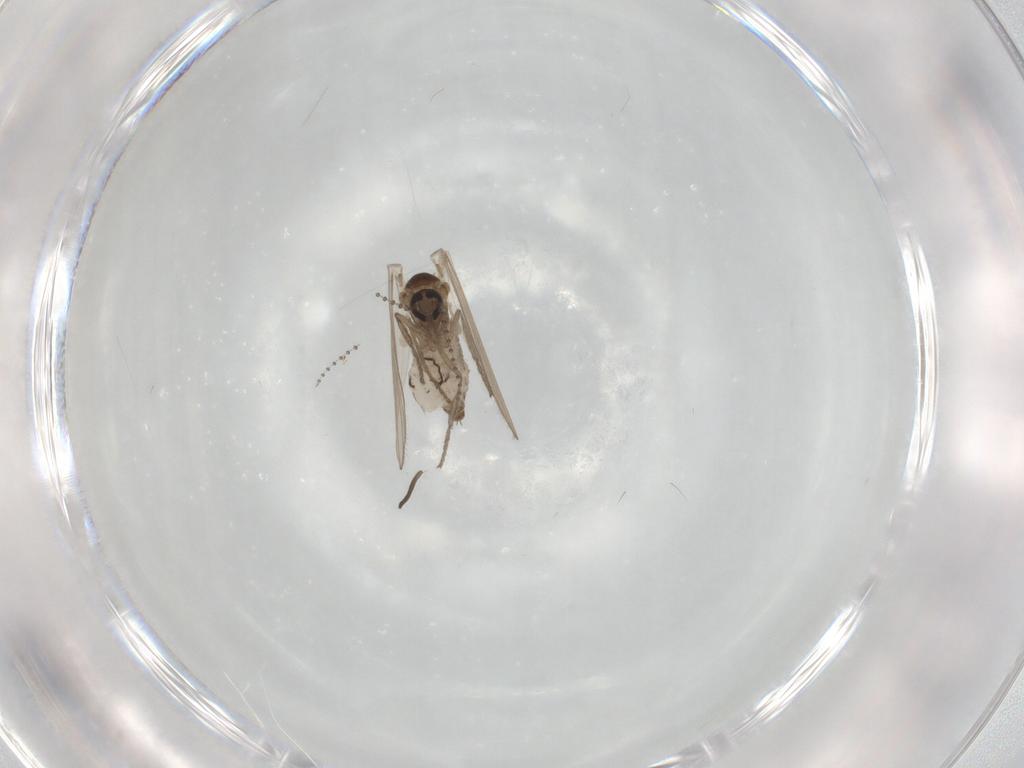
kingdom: Animalia
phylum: Arthropoda
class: Insecta
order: Diptera
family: Psychodidae
